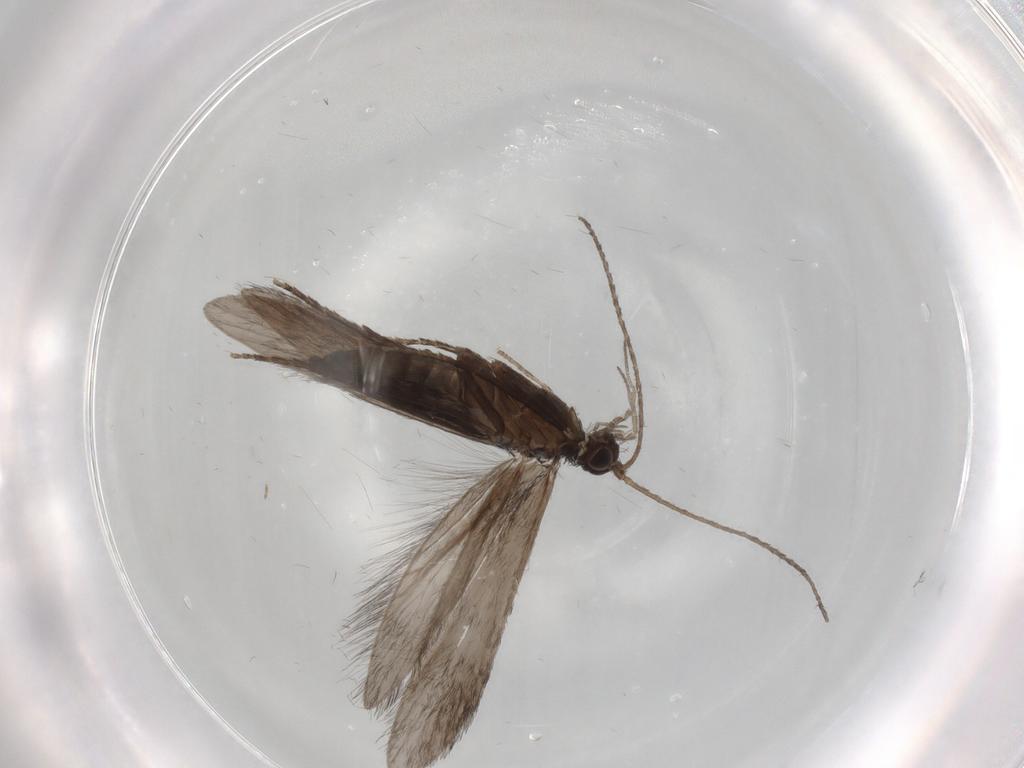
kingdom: Animalia
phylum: Arthropoda
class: Insecta
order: Trichoptera
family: Xiphocentronidae
